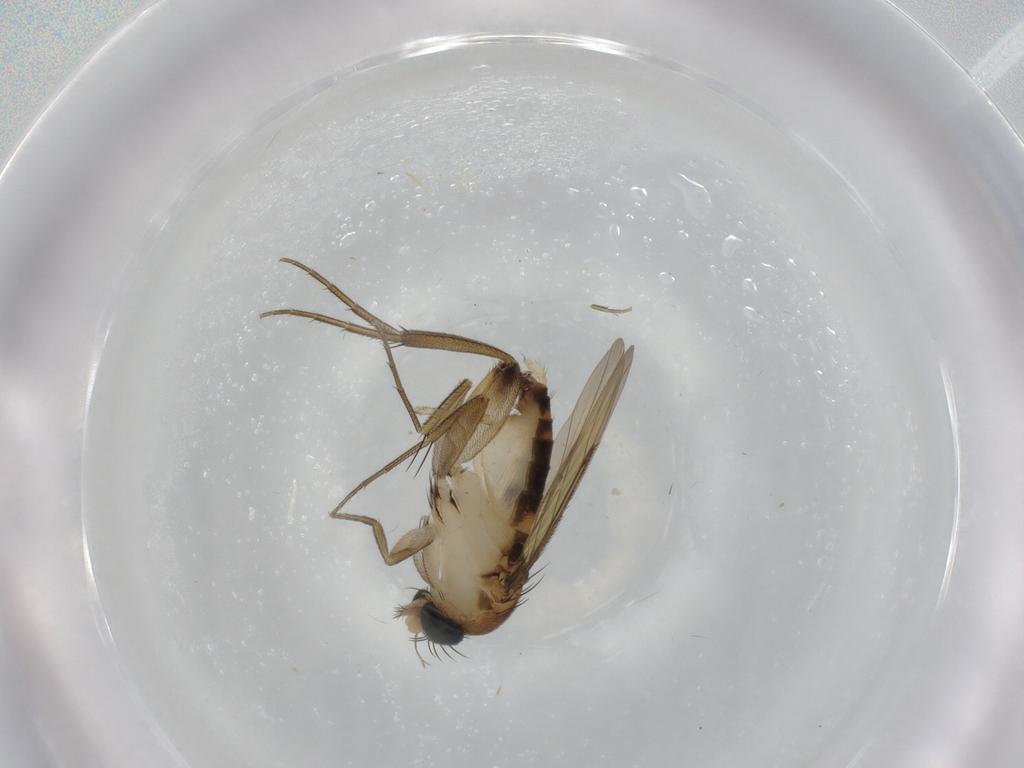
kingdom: Animalia
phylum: Arthropoda
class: Insecta
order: Diptera
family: Phoridae
